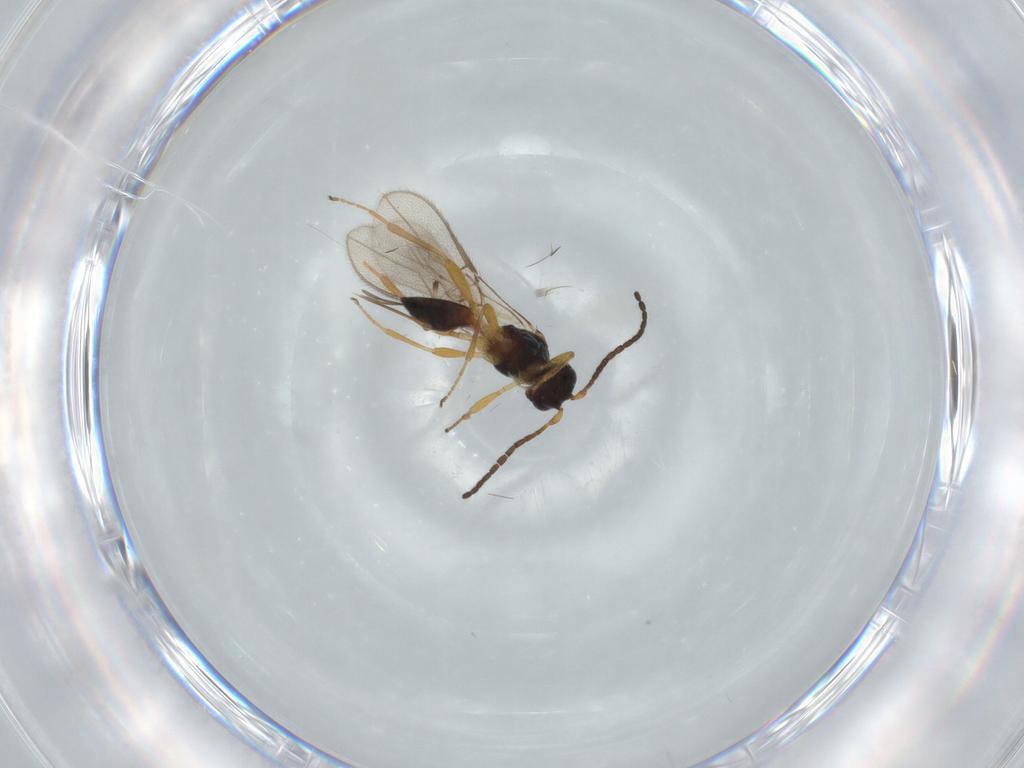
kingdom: Animalia
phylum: Arthropoda
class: Insecta
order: Hymenoptera
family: Braconidae
